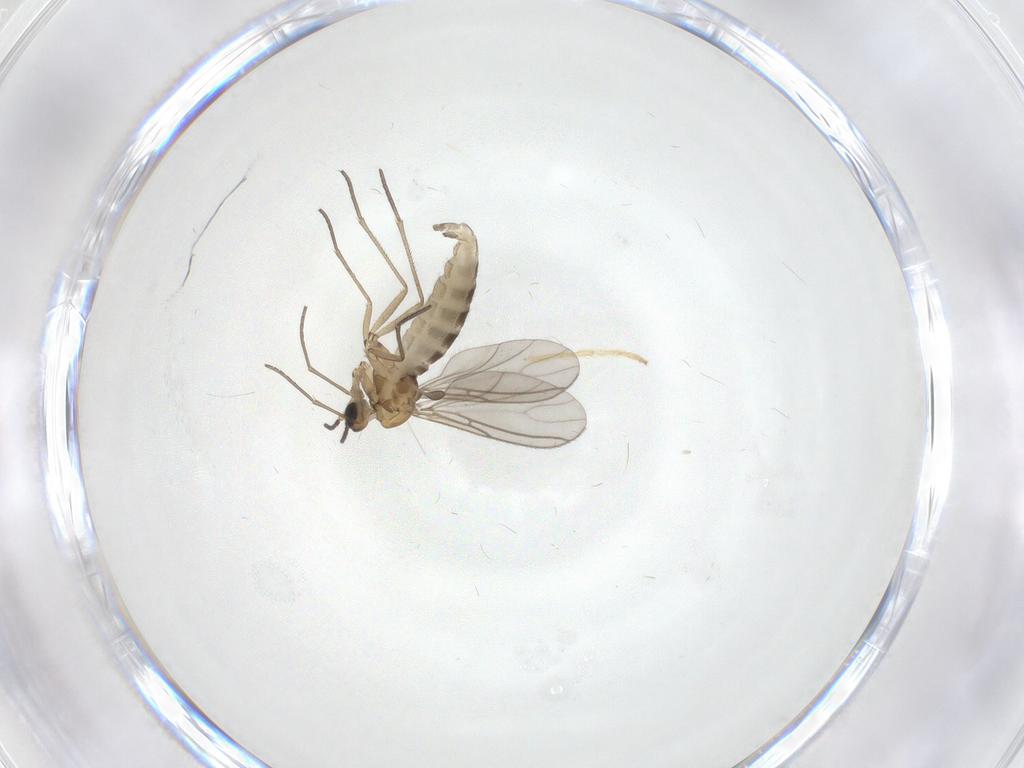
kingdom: Animalia
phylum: Arthropoda
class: Insecta
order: Diptera
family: Sciaridae
